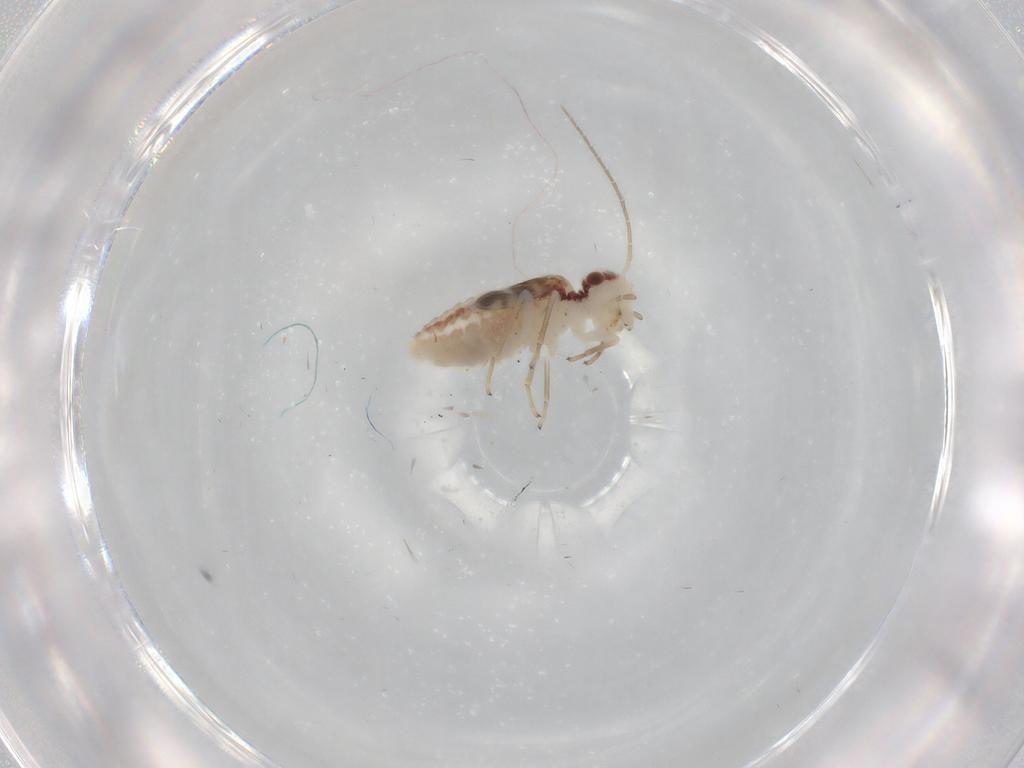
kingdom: Animalia
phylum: Arthropoda
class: Insecta
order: Psocodea
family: Archipsocidae
